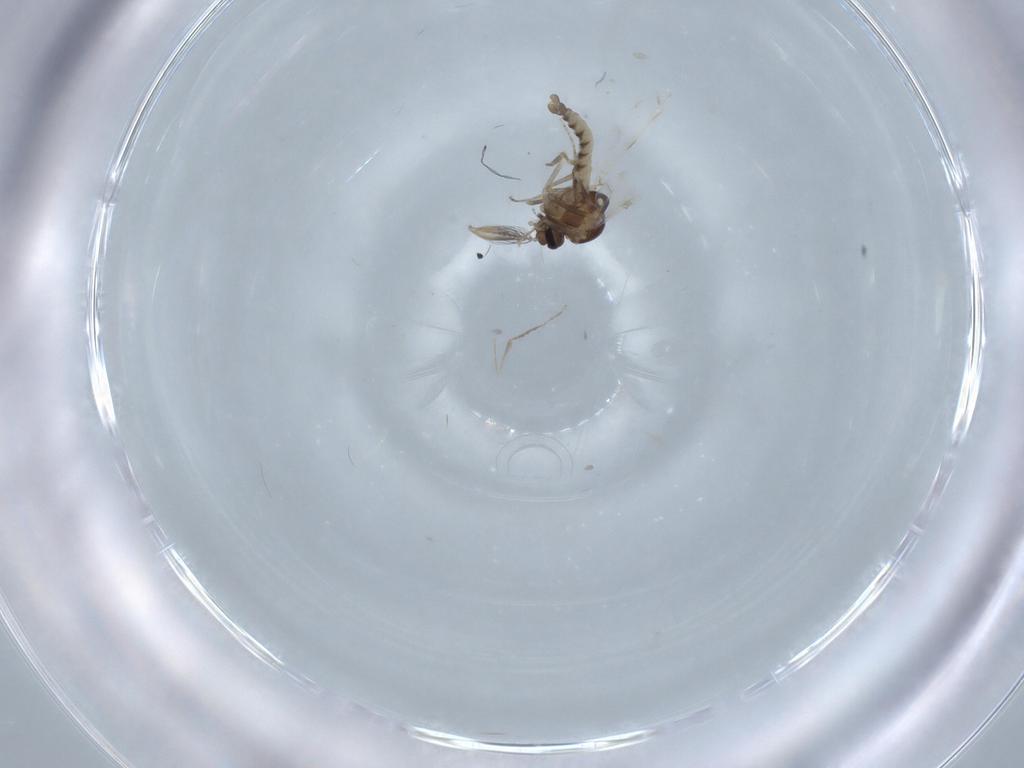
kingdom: Animalia
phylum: Arthropoda
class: Insecta
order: Diptera
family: Ceratopogonidae
